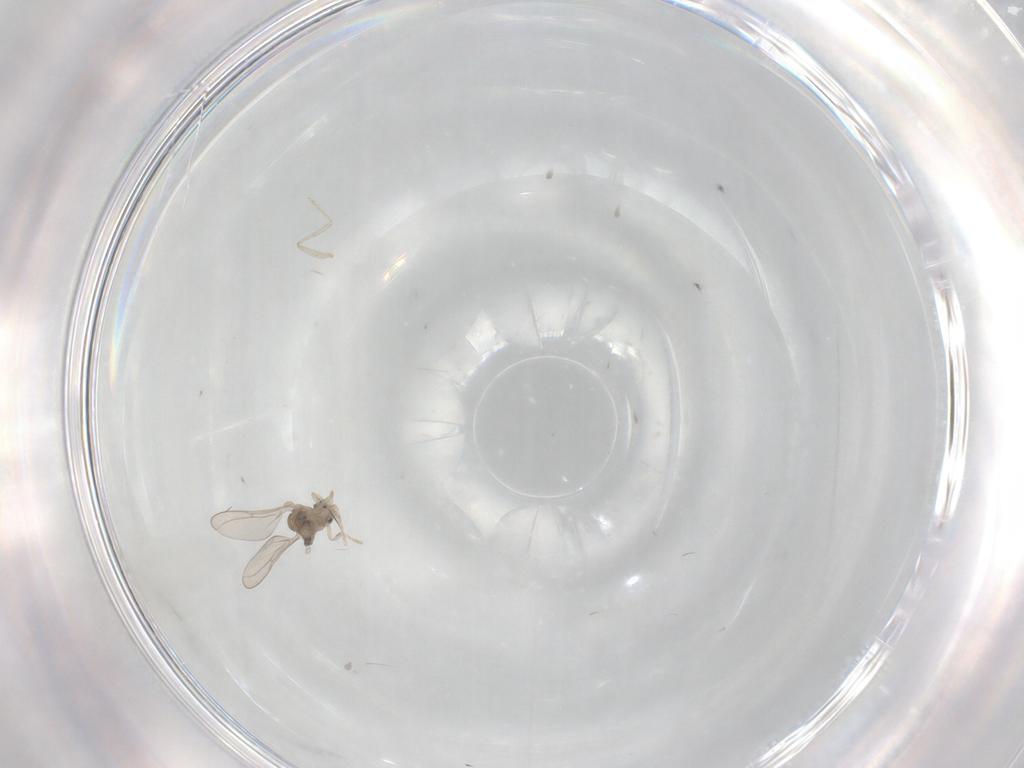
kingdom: Animalia
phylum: Arthropoda
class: Insecta
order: Diptera
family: Cecidomyiidae
